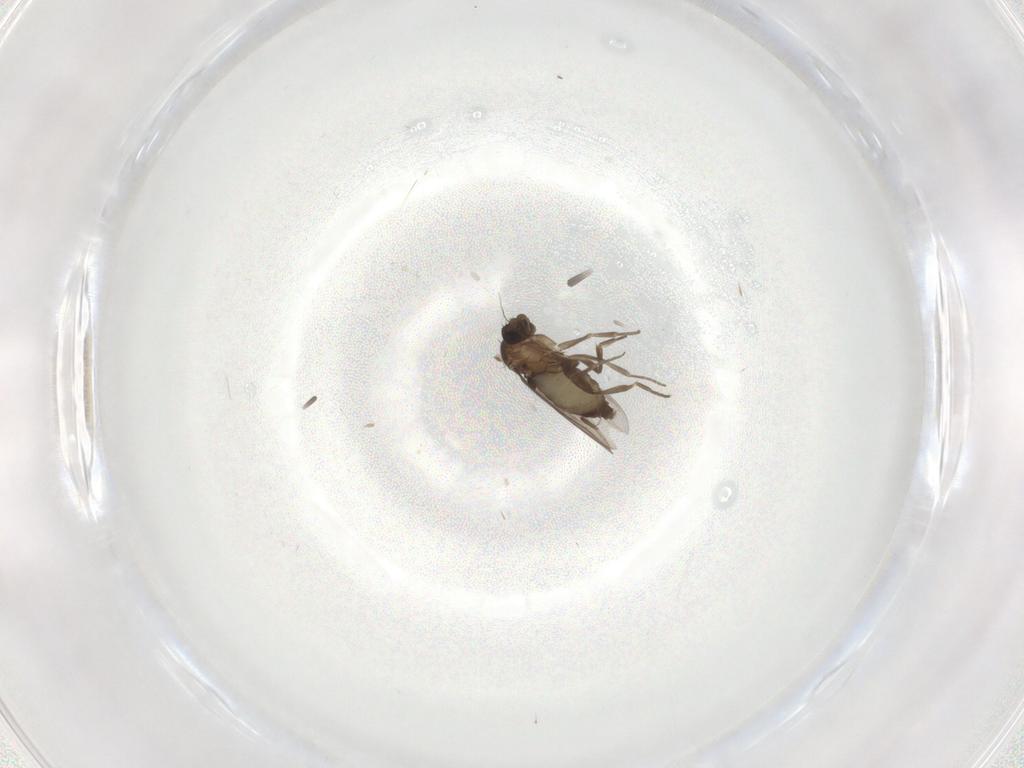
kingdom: Animalia
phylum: Arthropoda
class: Insecta
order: Diptera
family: Phoridae
